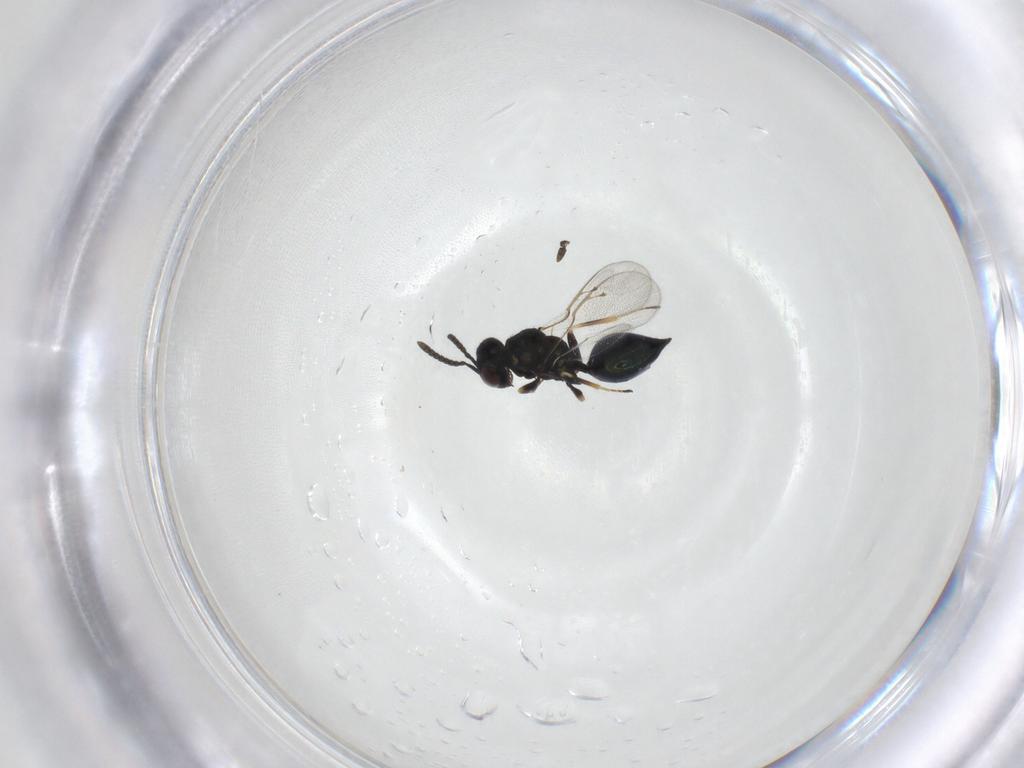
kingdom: Animalia
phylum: Arthropoda
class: Insecta
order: Hymenoptera
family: Pteromalidae
